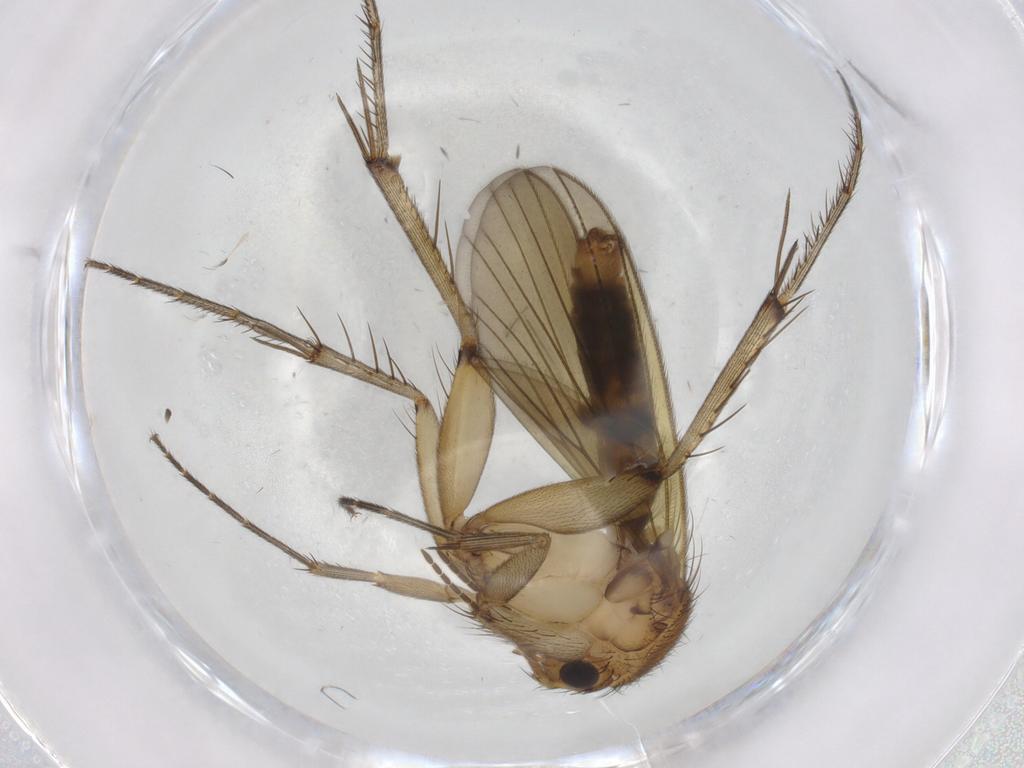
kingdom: Animalia
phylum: Arthropoda
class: Insecta
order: Diptera
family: Mycetophilidae
